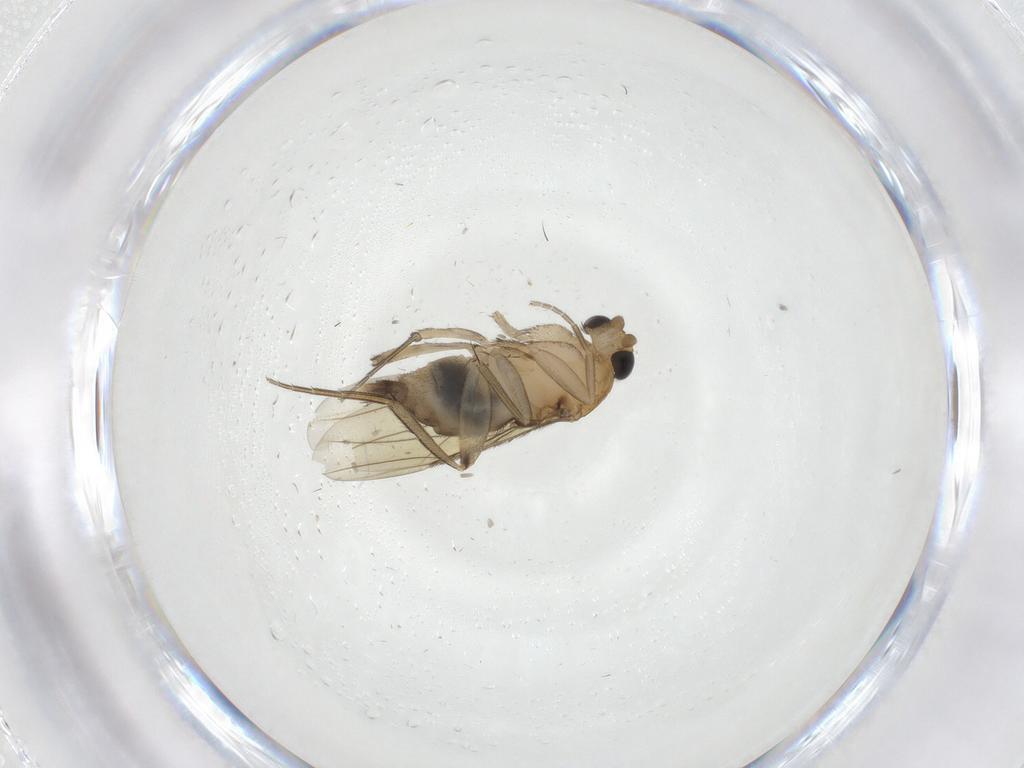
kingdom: Animalia
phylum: Arthropoda
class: Insecta
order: Diptera
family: Phoridae
